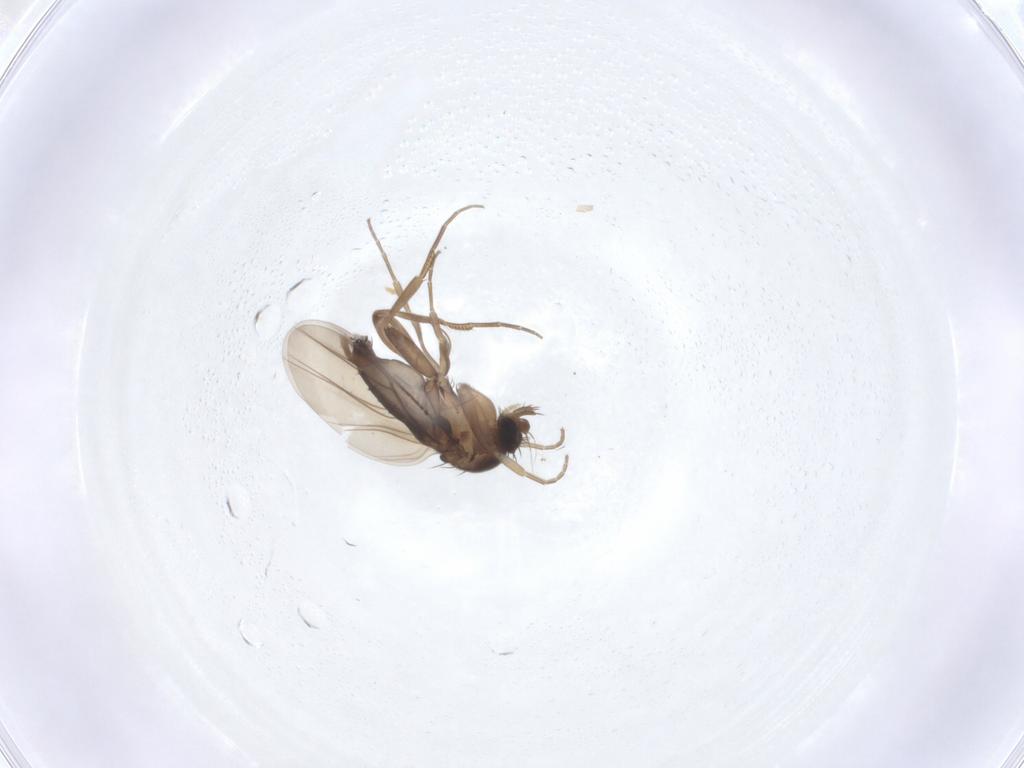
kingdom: Animalia
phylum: Arthropoda
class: Insecta
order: Diptera
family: Phoridae
